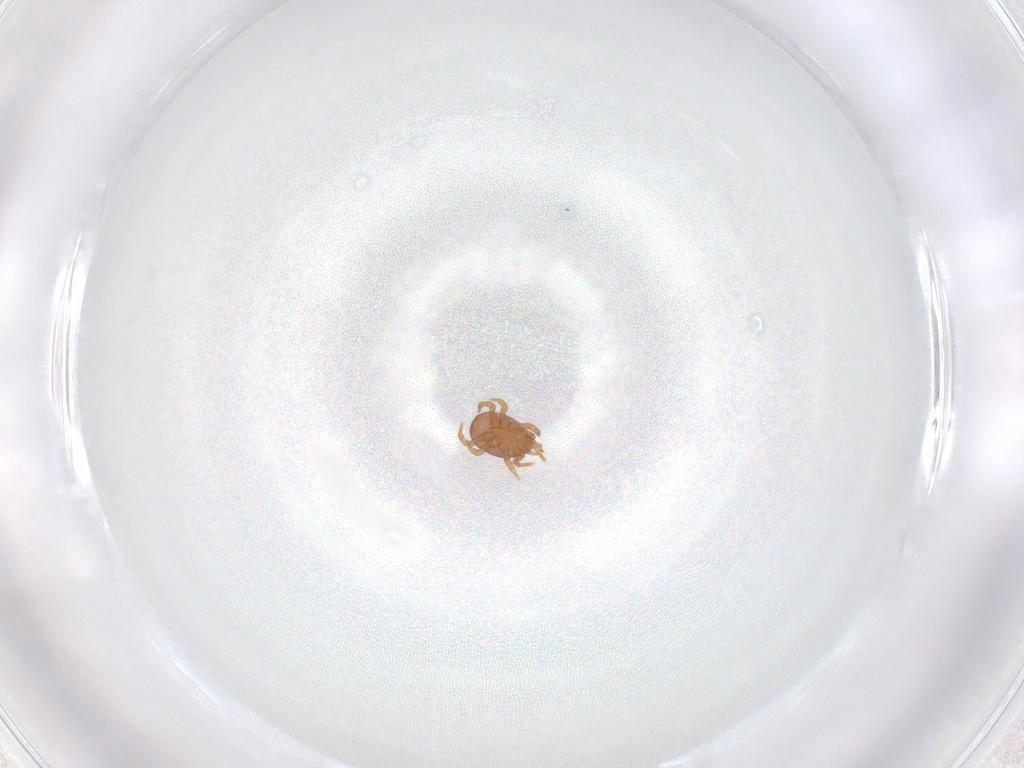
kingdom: Animalia
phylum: Arthropoda
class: Arachnida
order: Mesostigmata
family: Eviphididae
